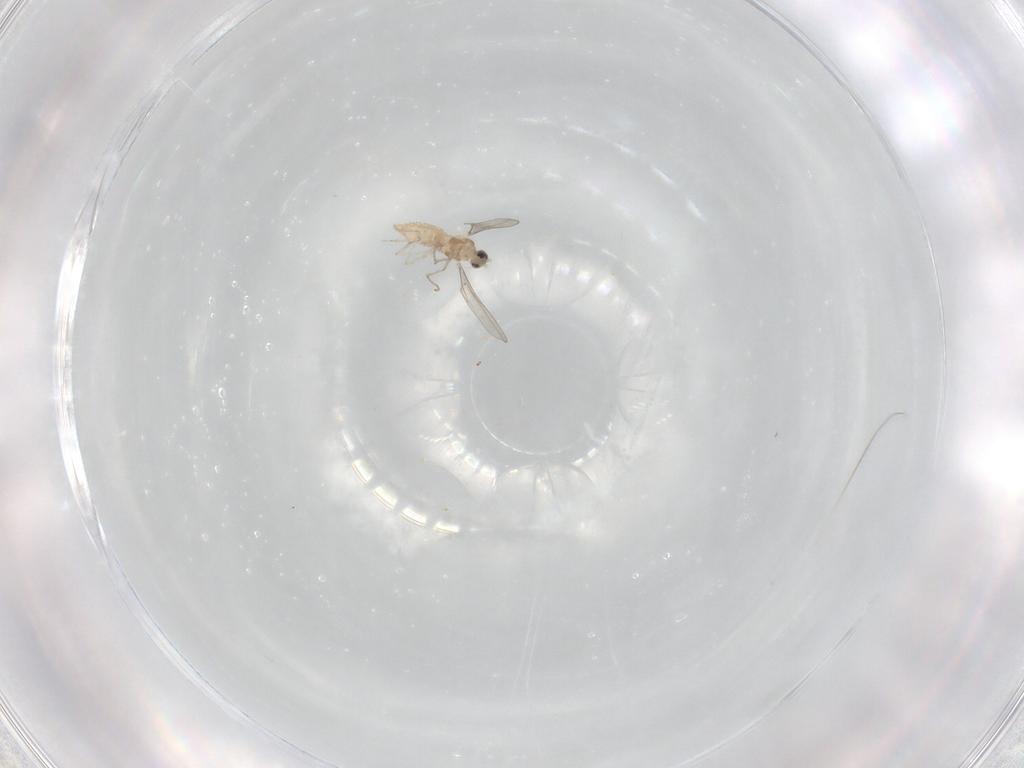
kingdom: Animalia
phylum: Arthropoda
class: Insecta
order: Diptera
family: Cecidomyiidae
